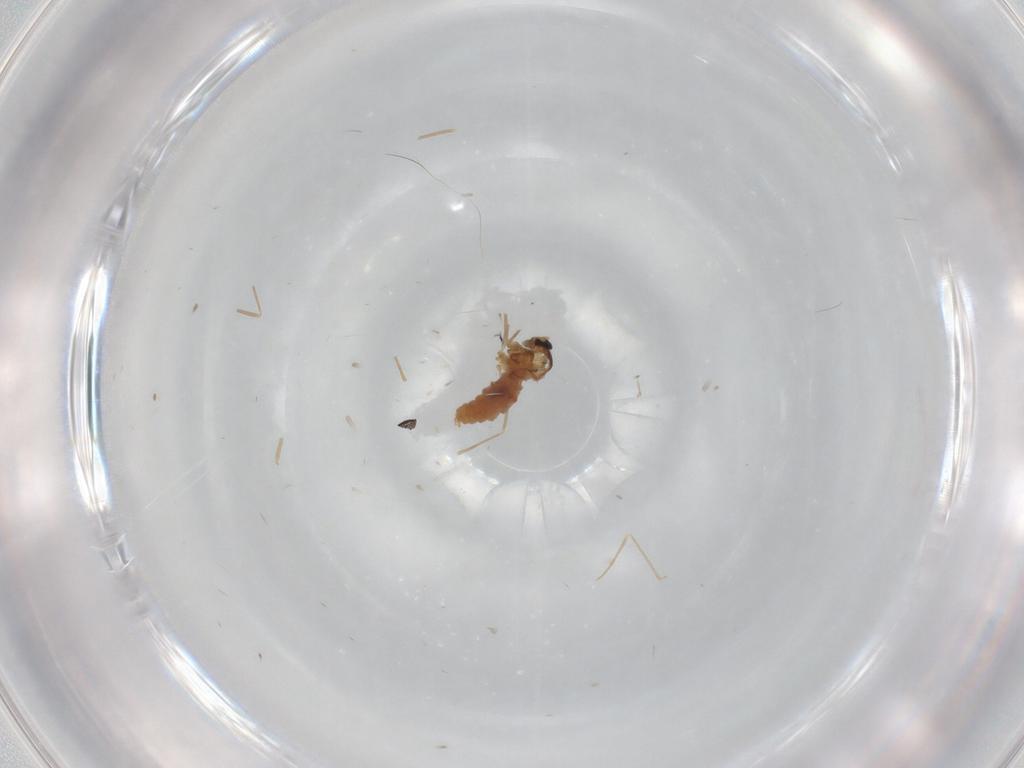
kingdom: Animalia
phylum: Arthropoda
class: Insecta
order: Diptera
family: Cecidomyiidae
